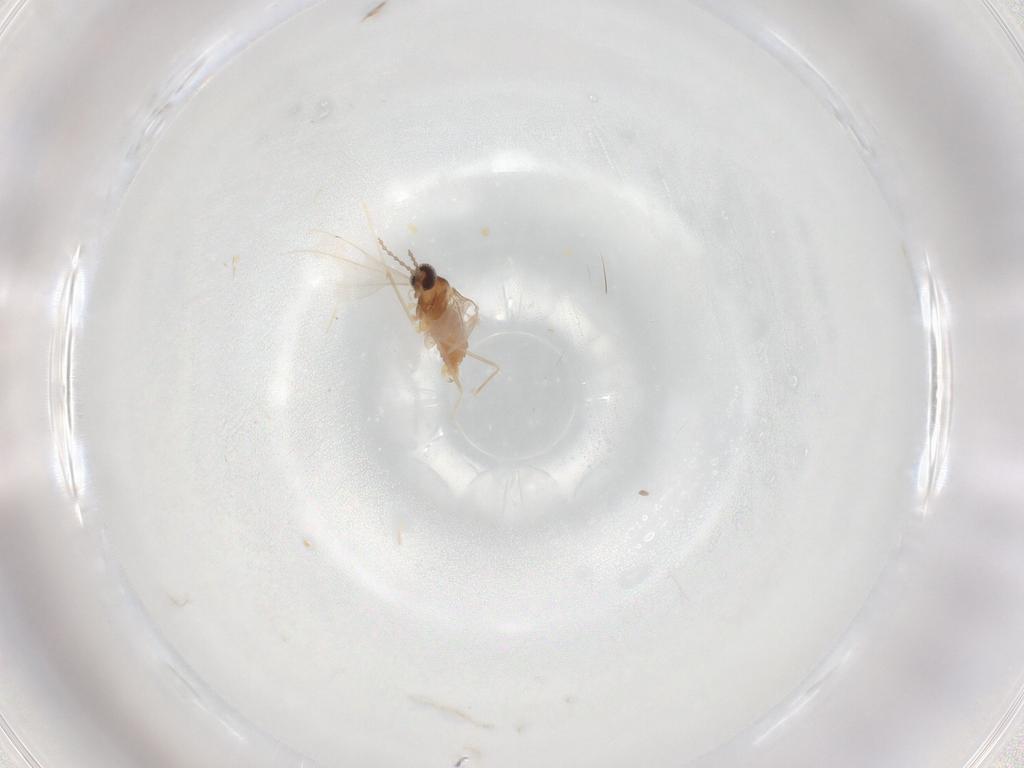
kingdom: Animalia
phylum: Arthropoda
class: Insecta
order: Diptera
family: Cecidomyiidae
